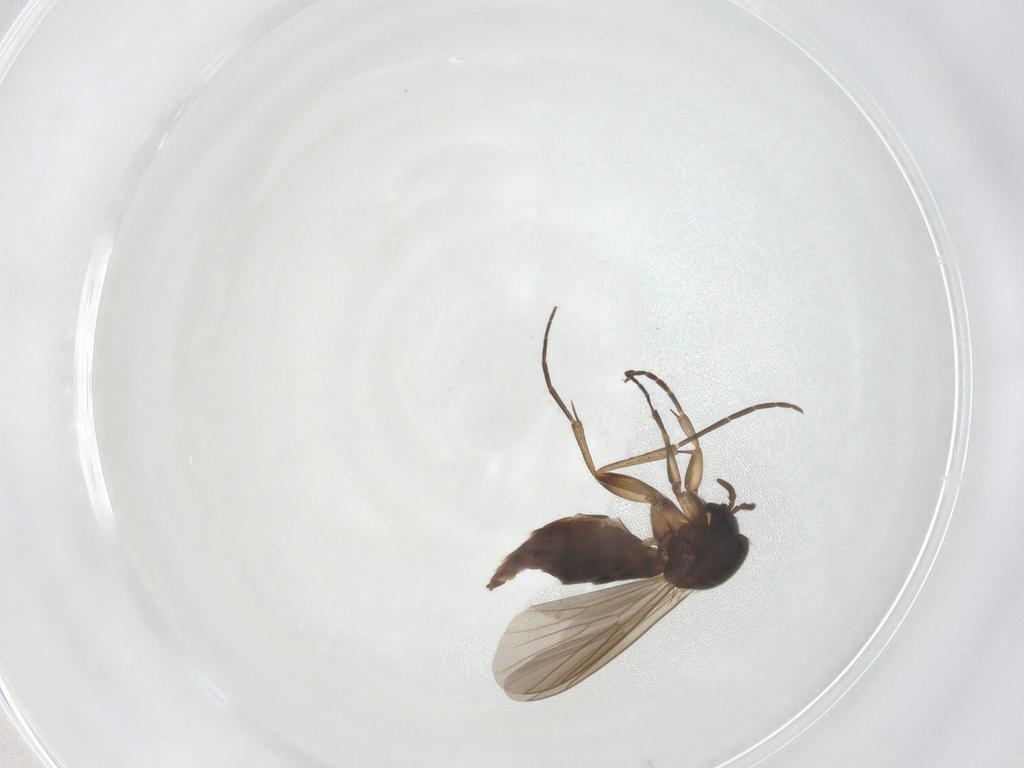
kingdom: Animalia
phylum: Arthropoda
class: Insecta
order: Diptera
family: Mycetophilidae
